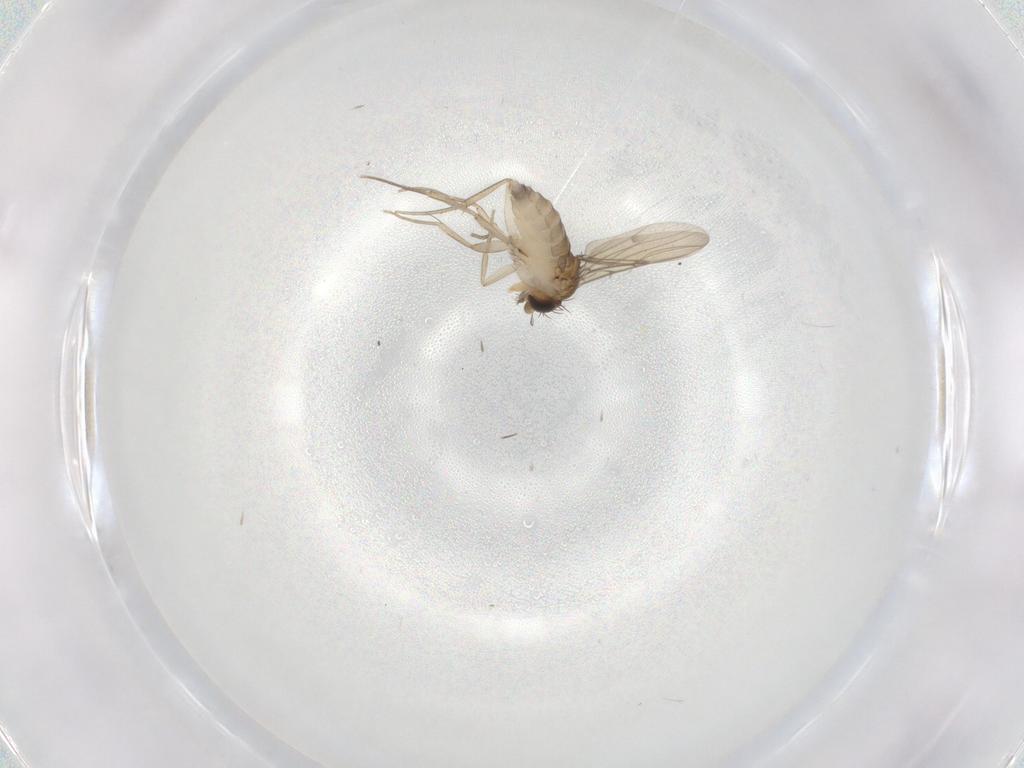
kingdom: Animalia
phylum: Arthropoda
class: Insecta
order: Diptera
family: Phoridae
